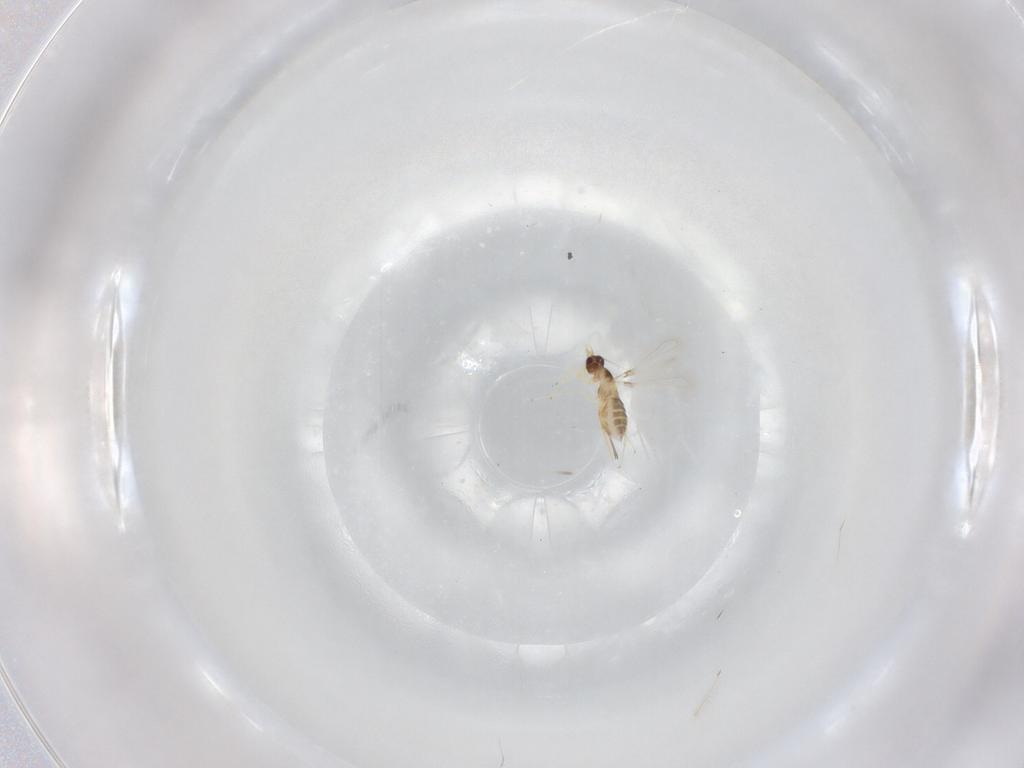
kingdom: Animalia
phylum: Arthropoda
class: Insecta
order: Hymenoptera
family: Mymaridae
